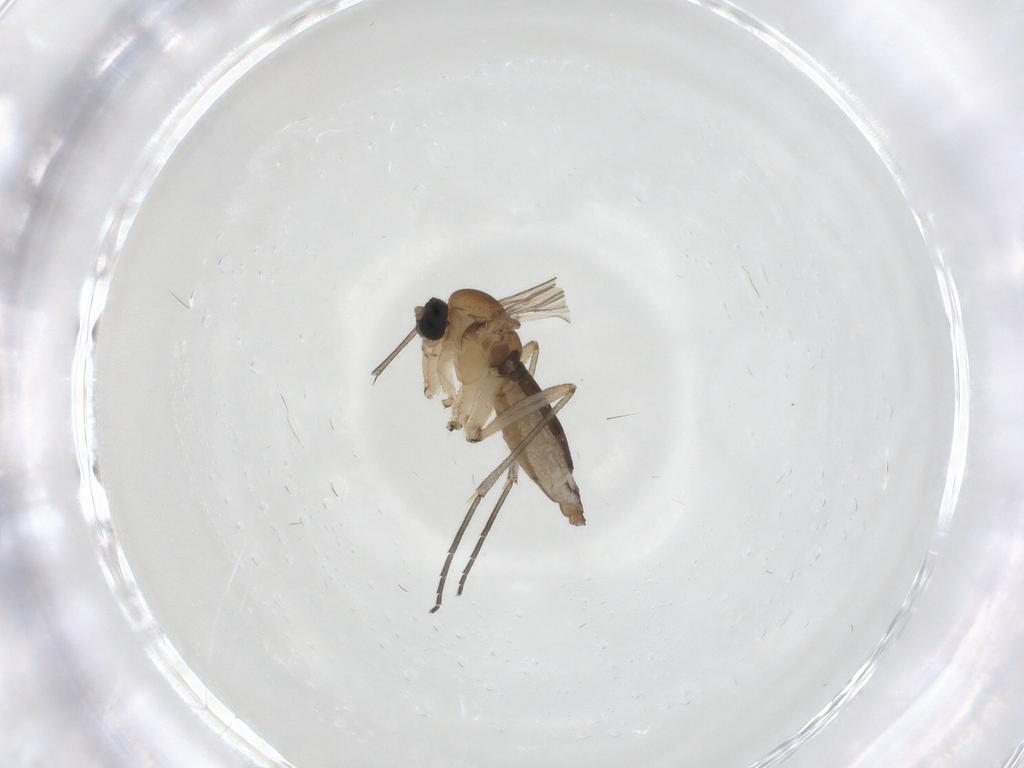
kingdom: Animalia
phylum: Arthropoda
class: Insecta
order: Diptera
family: Sciaridae
